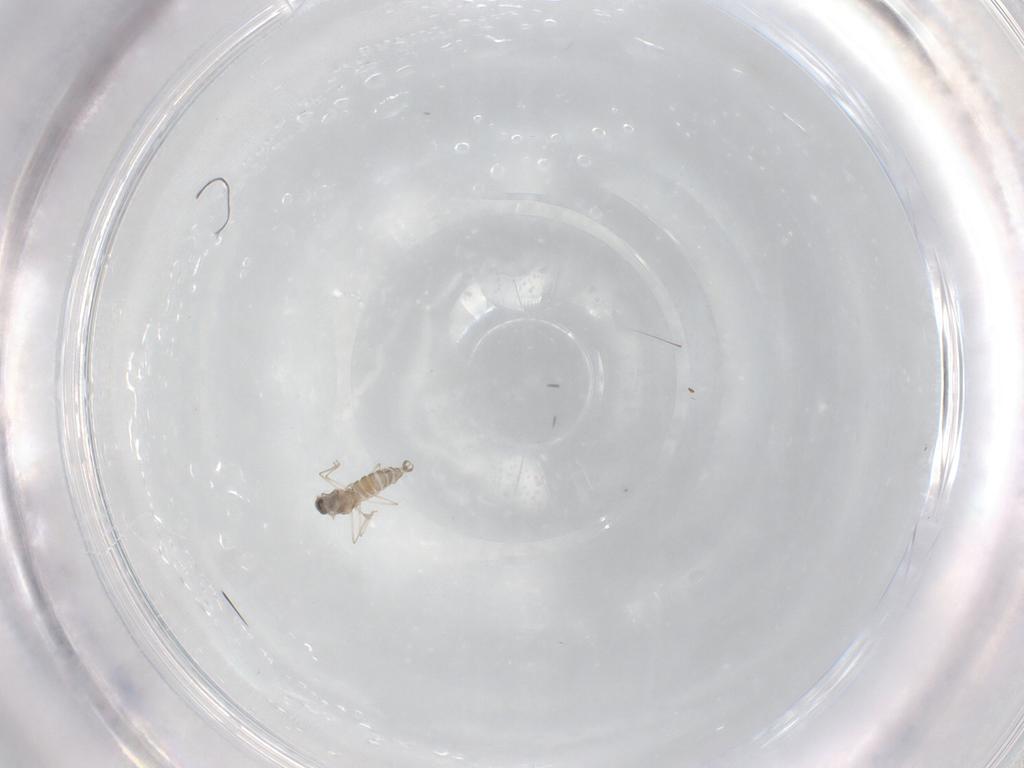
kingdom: Animalia
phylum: Arthropoda
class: Insecta
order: Diptera
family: Cecidomyiidae
